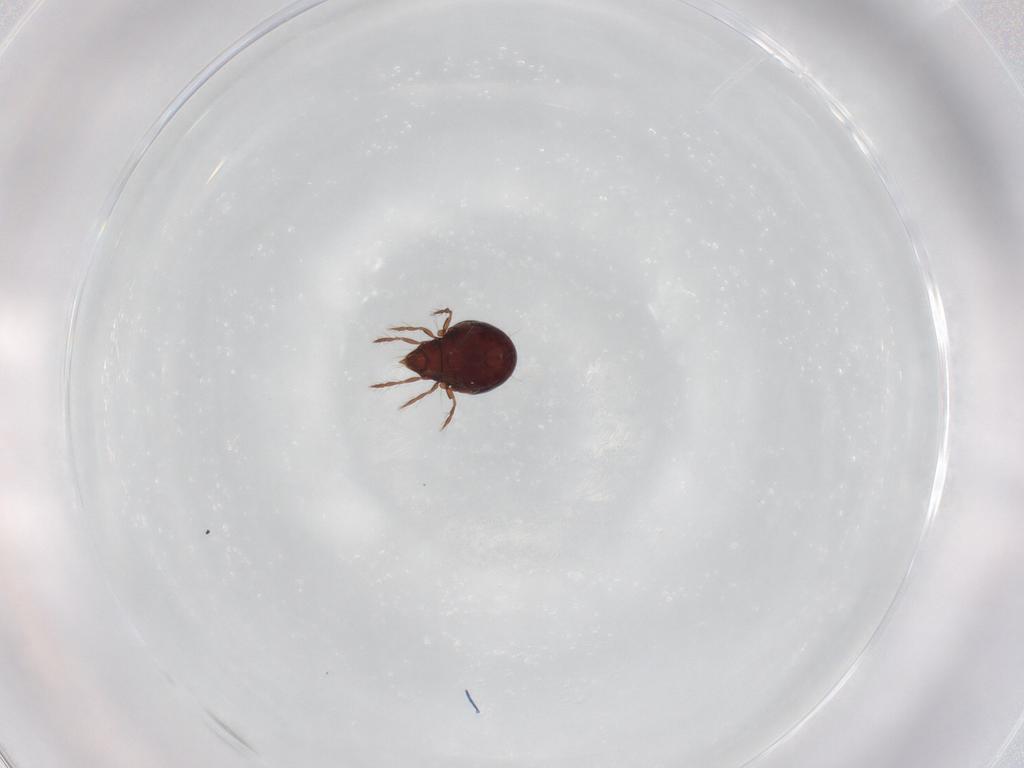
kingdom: Animalia
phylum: Arthropoda
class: Arachnida
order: Sarcoptiformes
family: Ceratoppiidae
